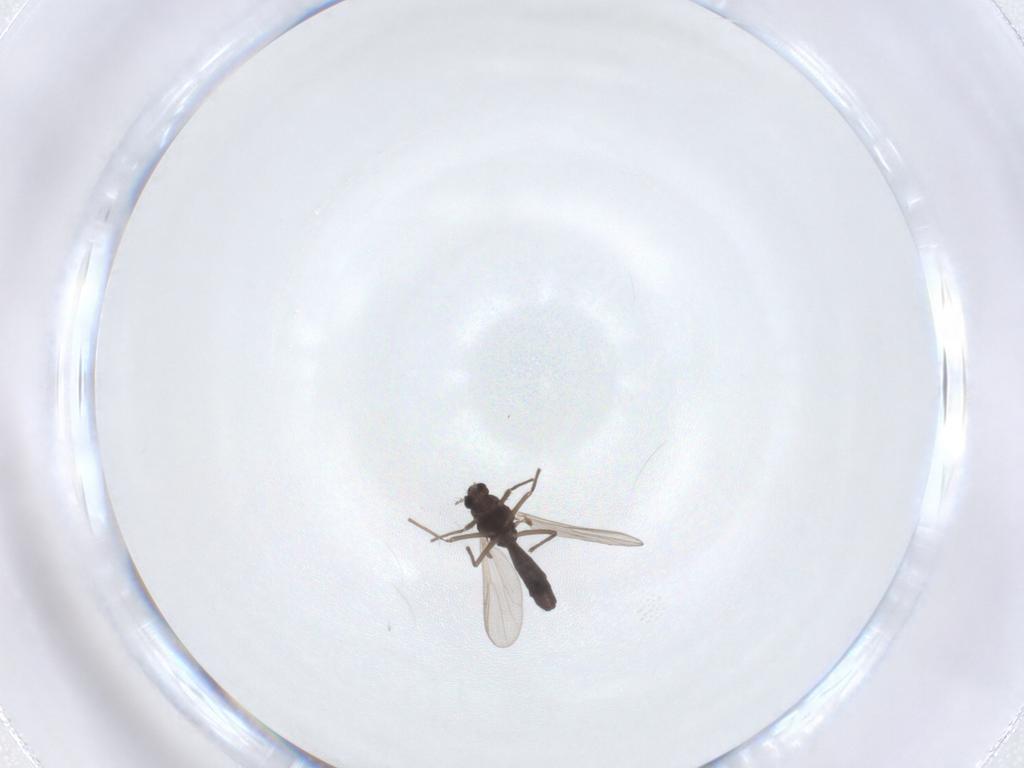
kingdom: Animalia
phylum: Arthropoda
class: Insecta
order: Diptera
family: Chironomidae
